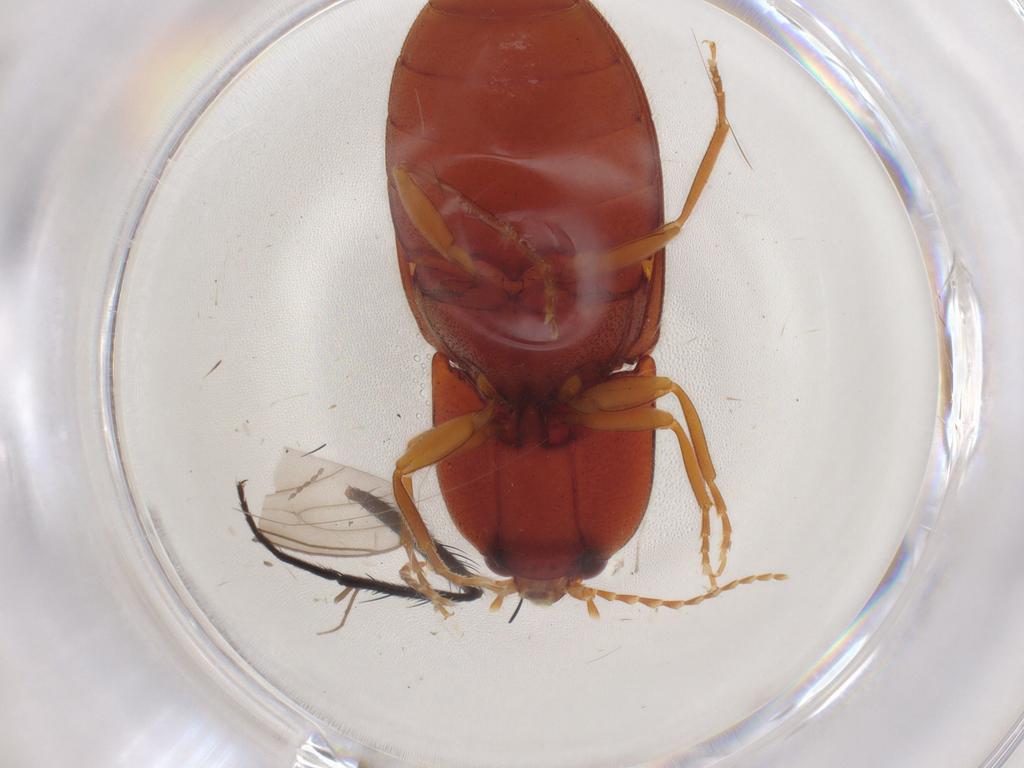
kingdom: Animalia
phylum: Arthropoda
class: Insecta
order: Coleoptera
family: Elateridae
